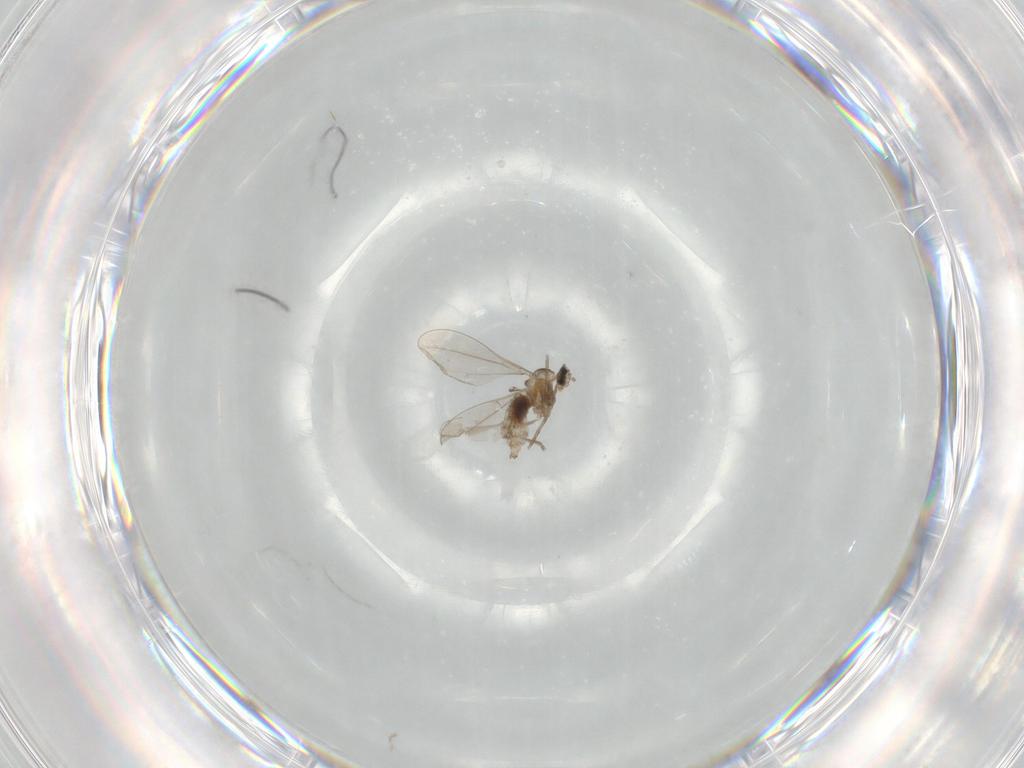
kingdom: Animalia
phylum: Arthropoda
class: Insecta
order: Diptera
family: Cecidomyiidae
